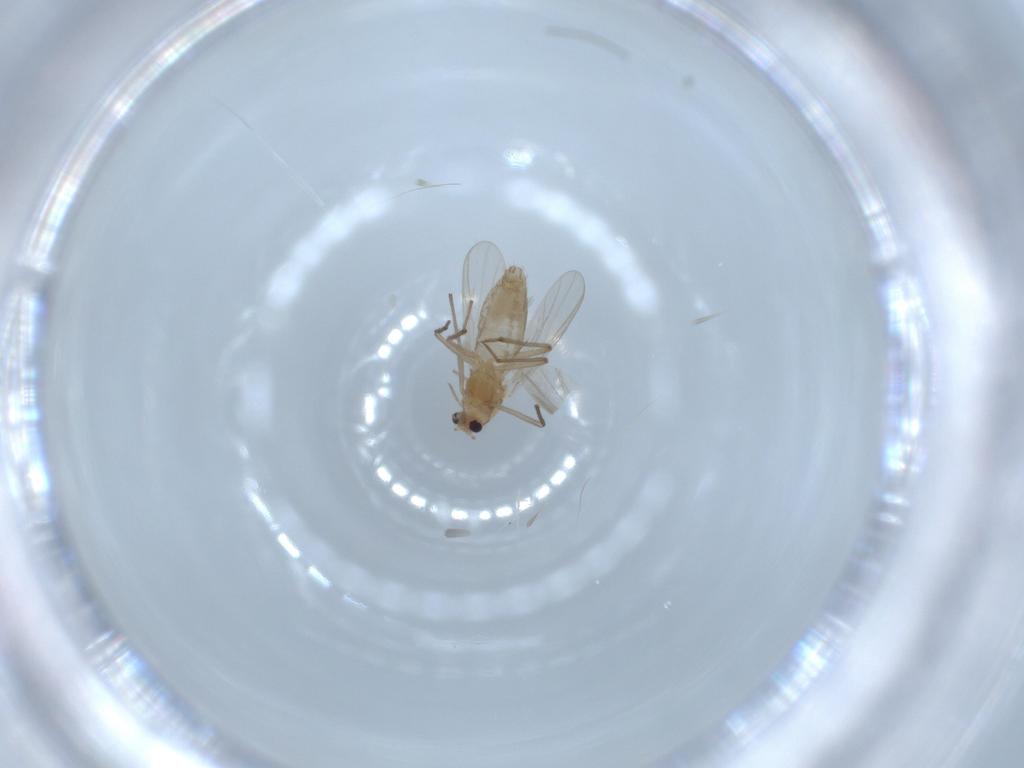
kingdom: Animalia
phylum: Arthropoda
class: Insecta
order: Diptera
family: Chironomidae
